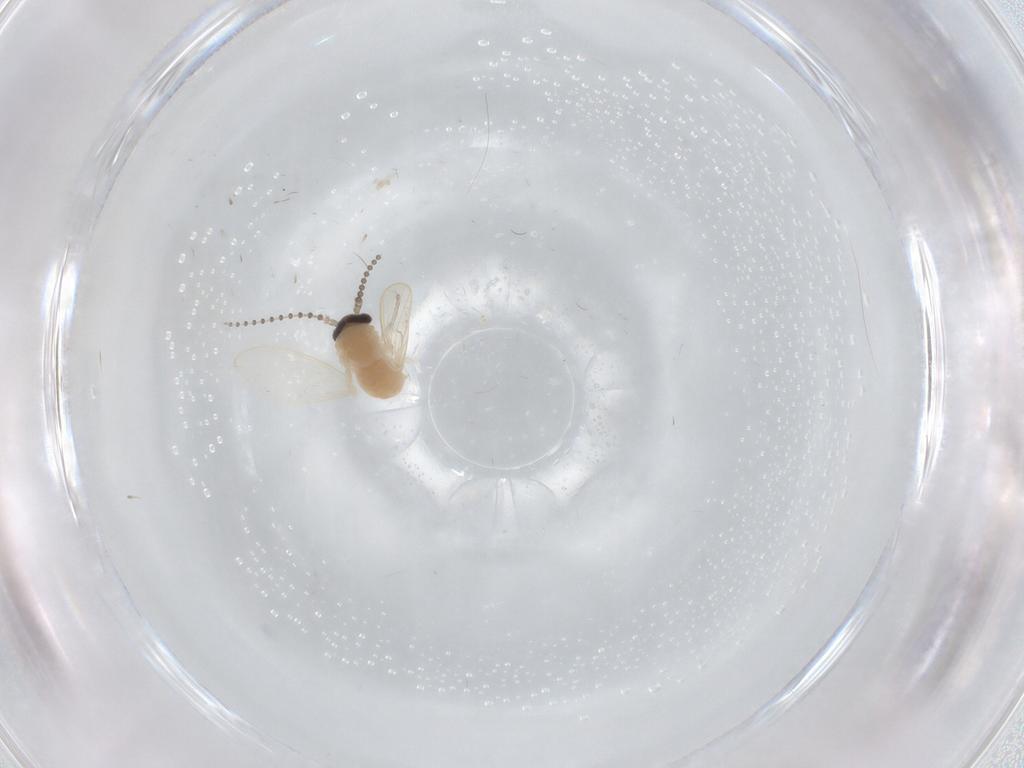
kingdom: Animalia
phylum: Arthropoda
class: Insecta
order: Diptera
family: Psychodidae
